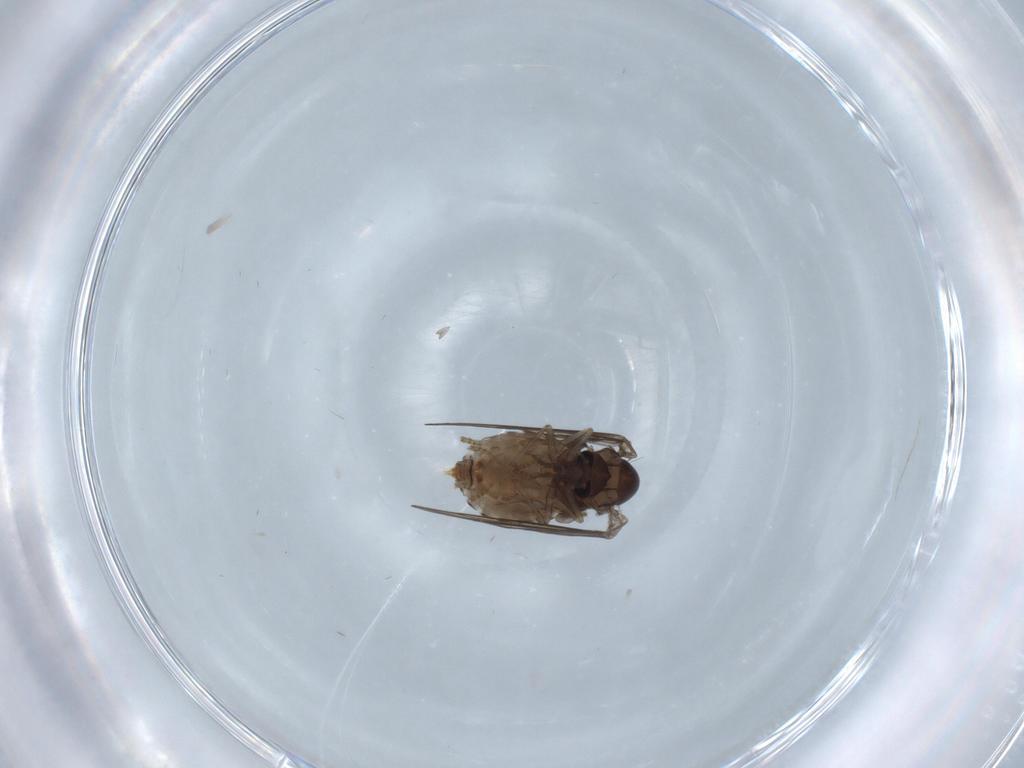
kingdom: Animalia
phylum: Arthropoda
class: Insecta
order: Diptera
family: Psychodidae
